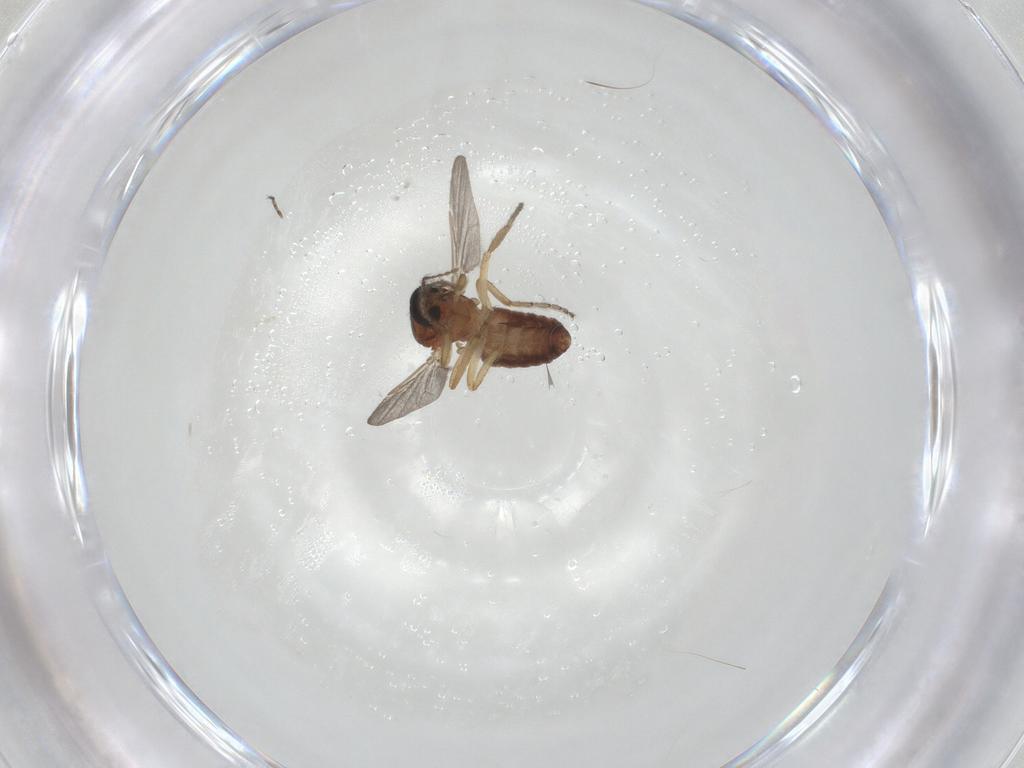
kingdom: Animalia
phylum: Arthropoda
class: Insecta
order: Diptera
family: Ceratopogonidae
